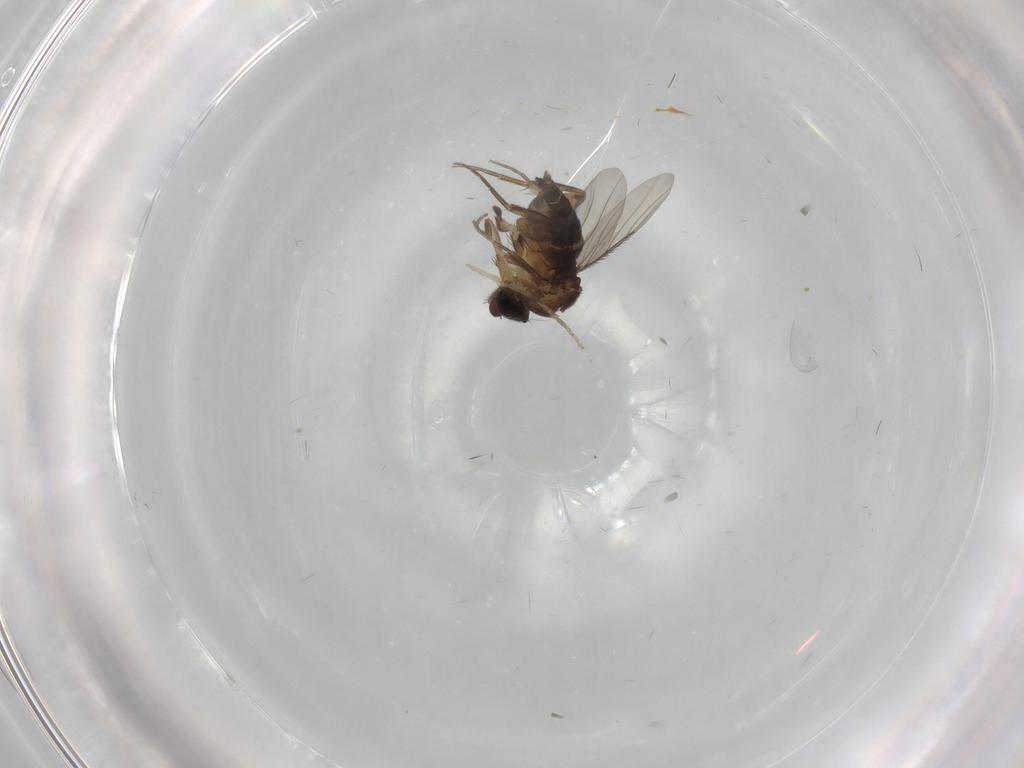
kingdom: Animalia
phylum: Arthropoda
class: Insecta
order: Diptera
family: Phoridae
